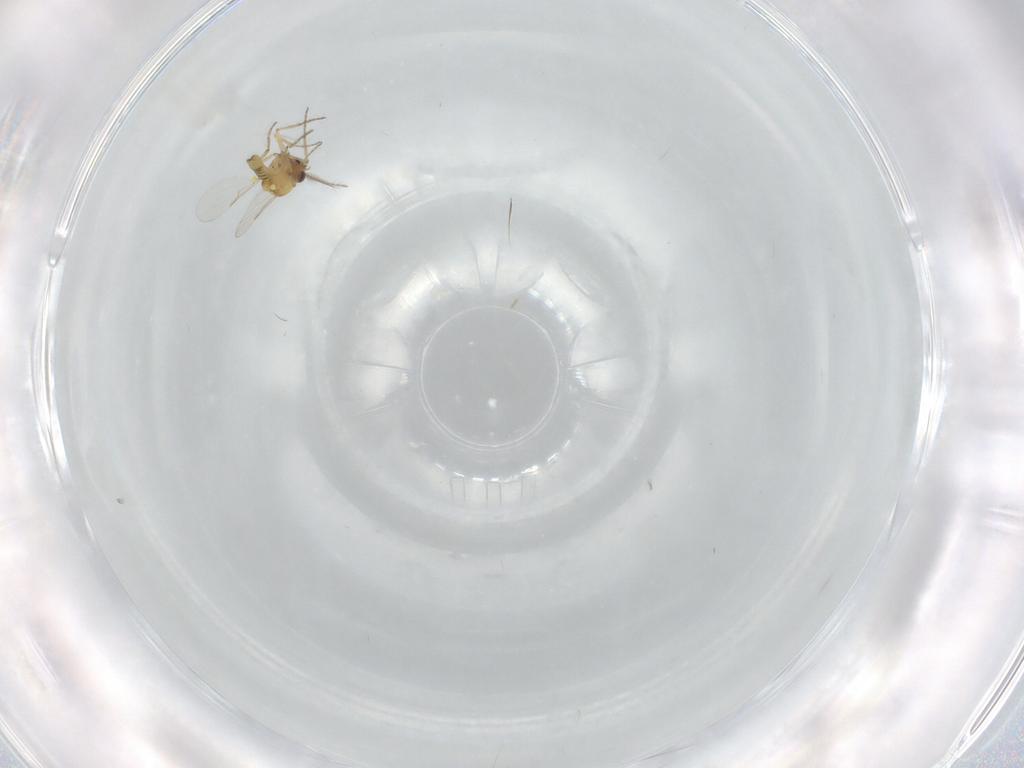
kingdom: Animalia
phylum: Arthropoda
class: Insecta
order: Diptera
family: Ceratopogonidae
